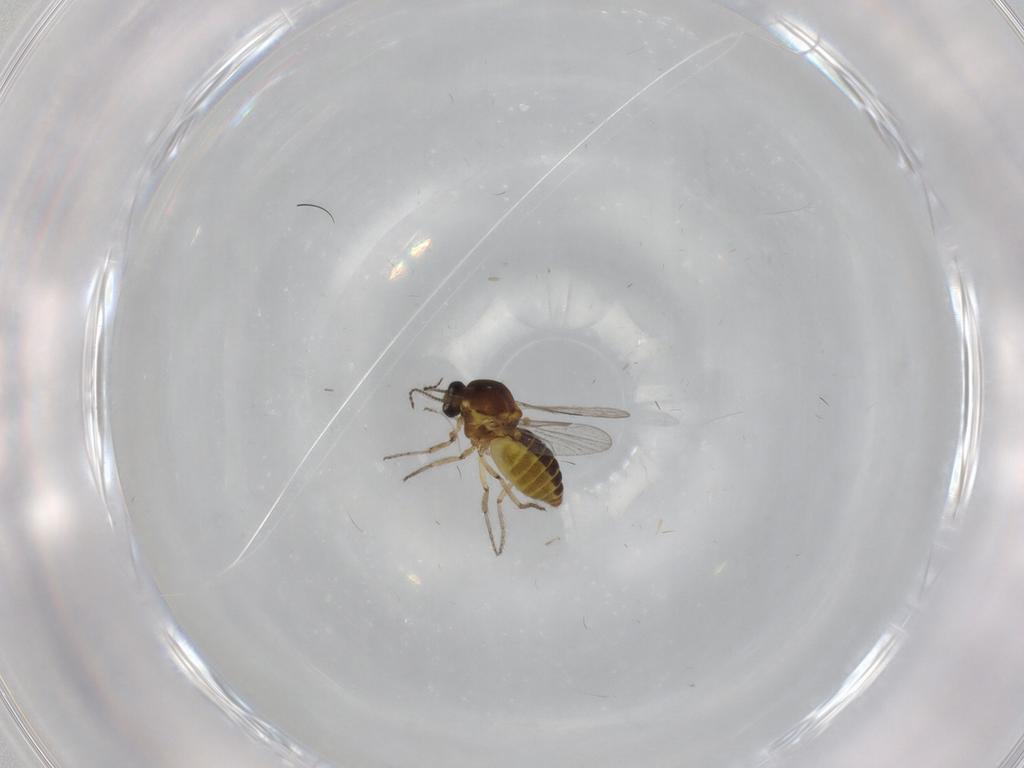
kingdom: Animalia
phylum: Arthropoda
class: Insecta
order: Diptera
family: Ceratopogonidae
